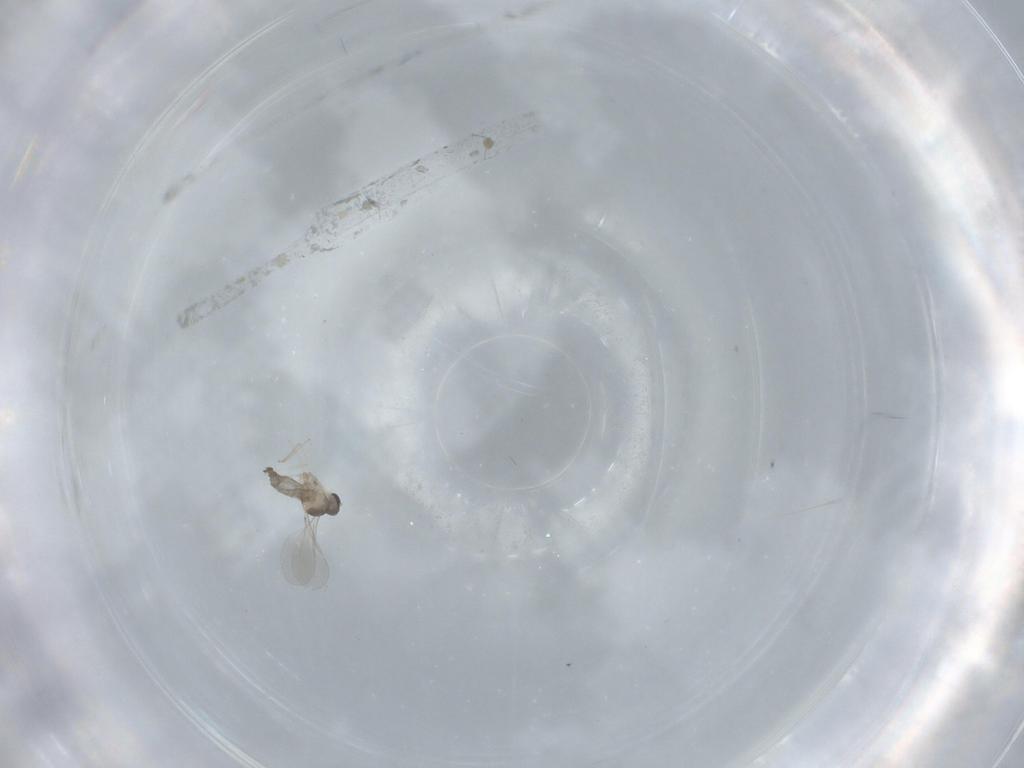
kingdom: Animalia
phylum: Arthropoda
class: Insecta
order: Diptera
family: Cecidomyiidae
